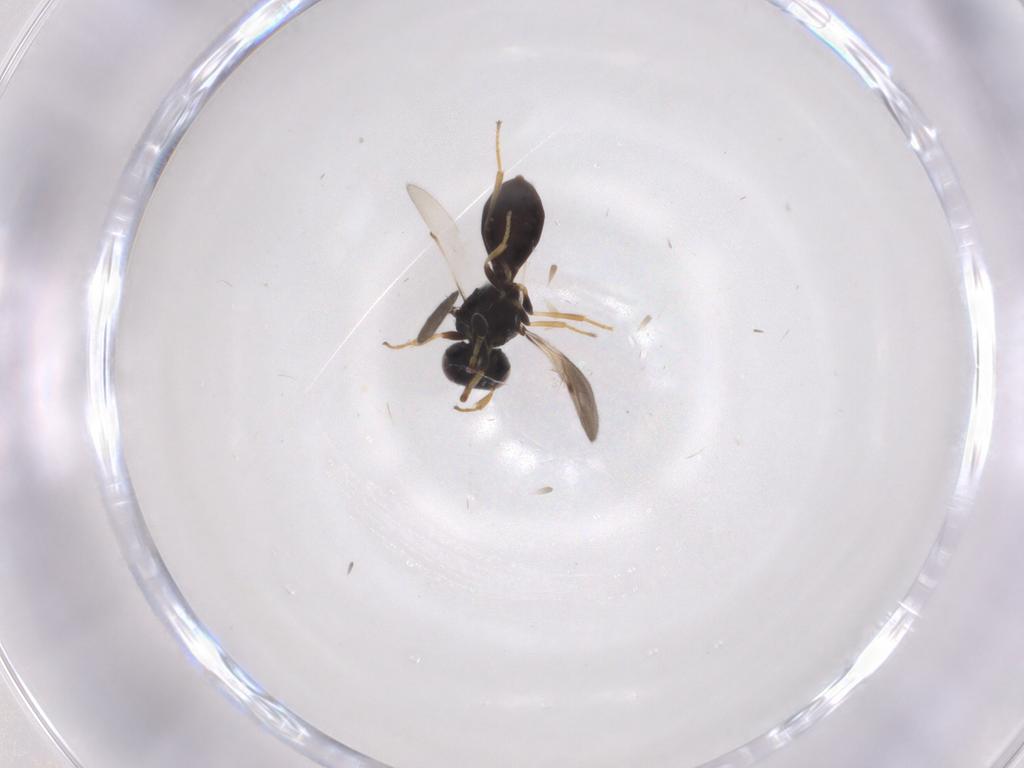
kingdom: Animalia
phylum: Arthropoda
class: Insecta
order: Hymenoptera
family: Scelionidae
